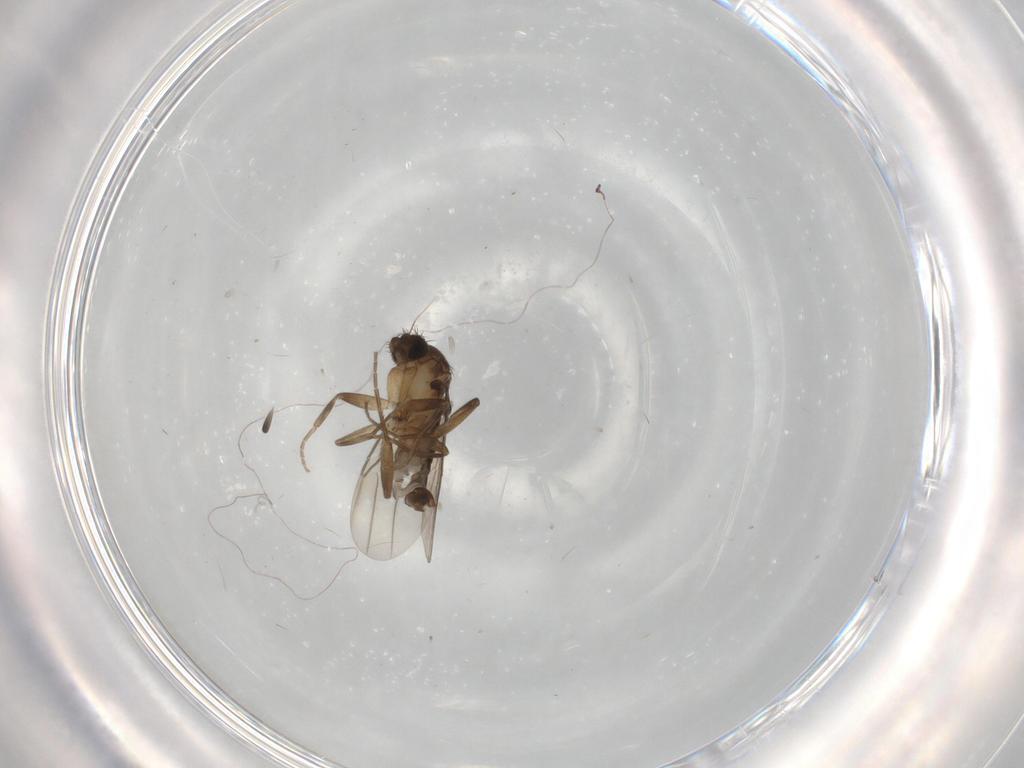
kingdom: Animalia
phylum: Arthropoda
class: Insecta
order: Diptera
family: Phoridae
